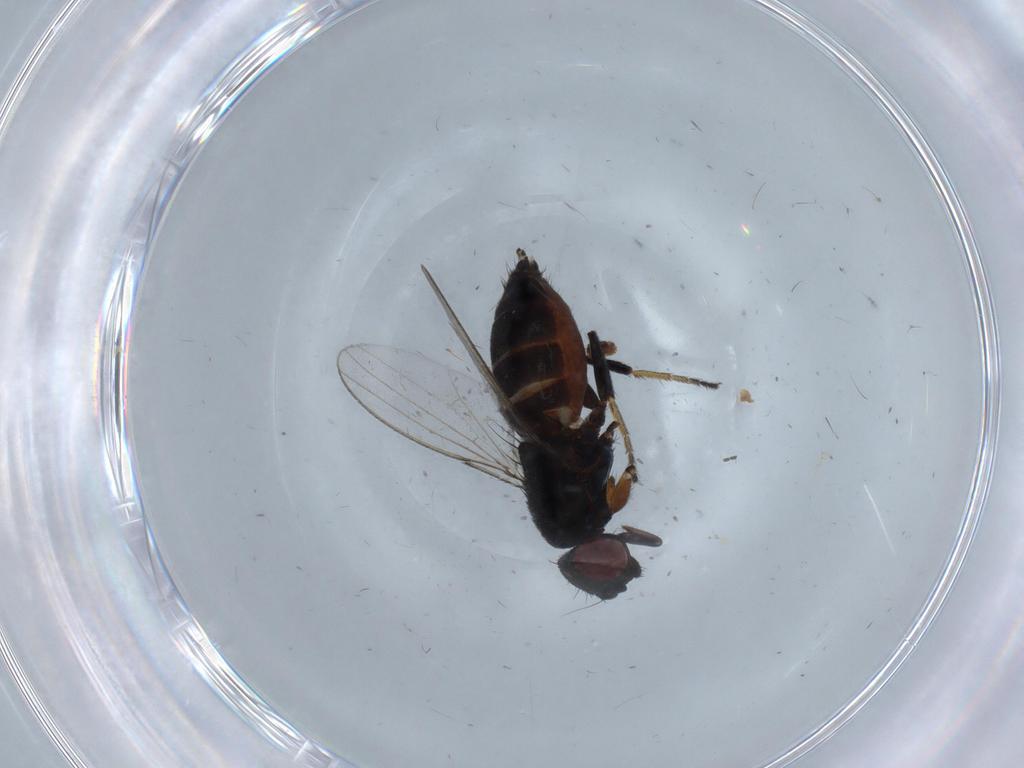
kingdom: Animalia
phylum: Arthropoda
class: Insecta
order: Diptera
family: Milichiidae
